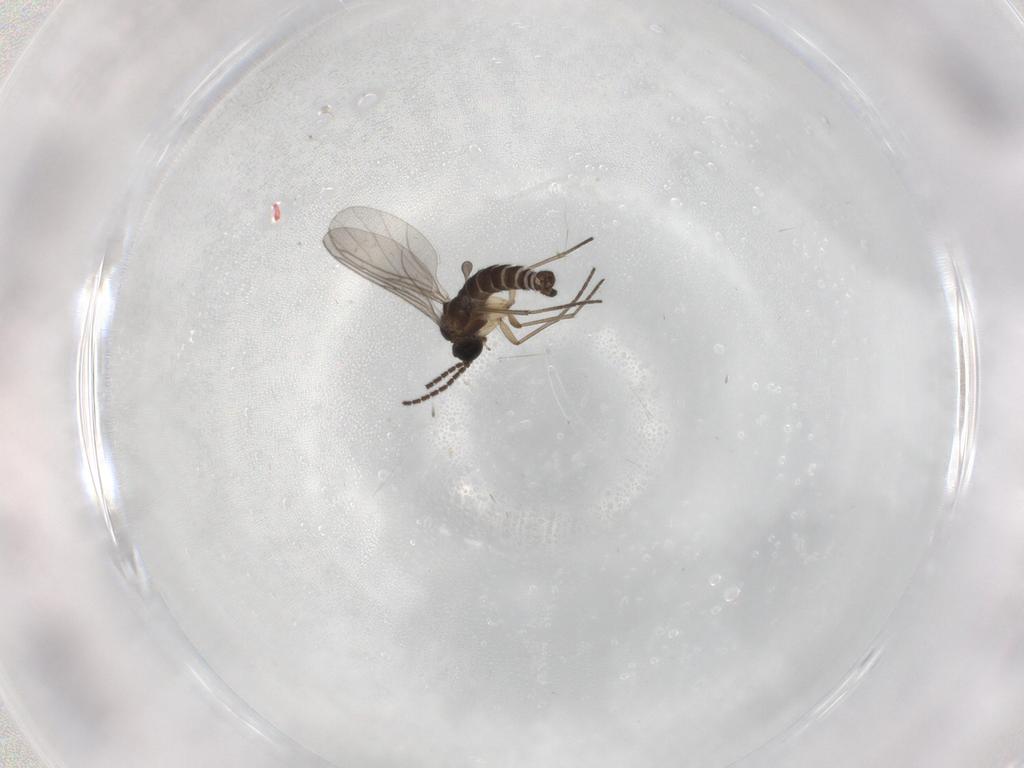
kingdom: Animalia
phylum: Arthropoda
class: Insecta
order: Diptera
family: Sciaridae
